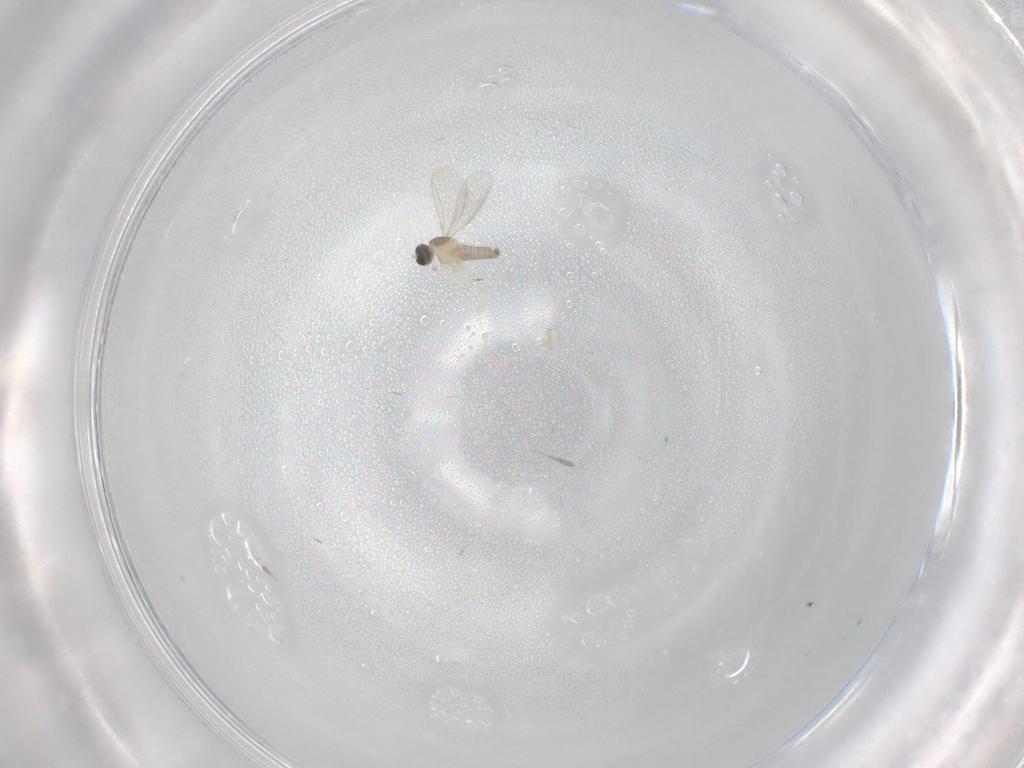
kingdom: Animalia
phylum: Arthropoda
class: Insecta
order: Diptera
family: Cecidomyiidae
